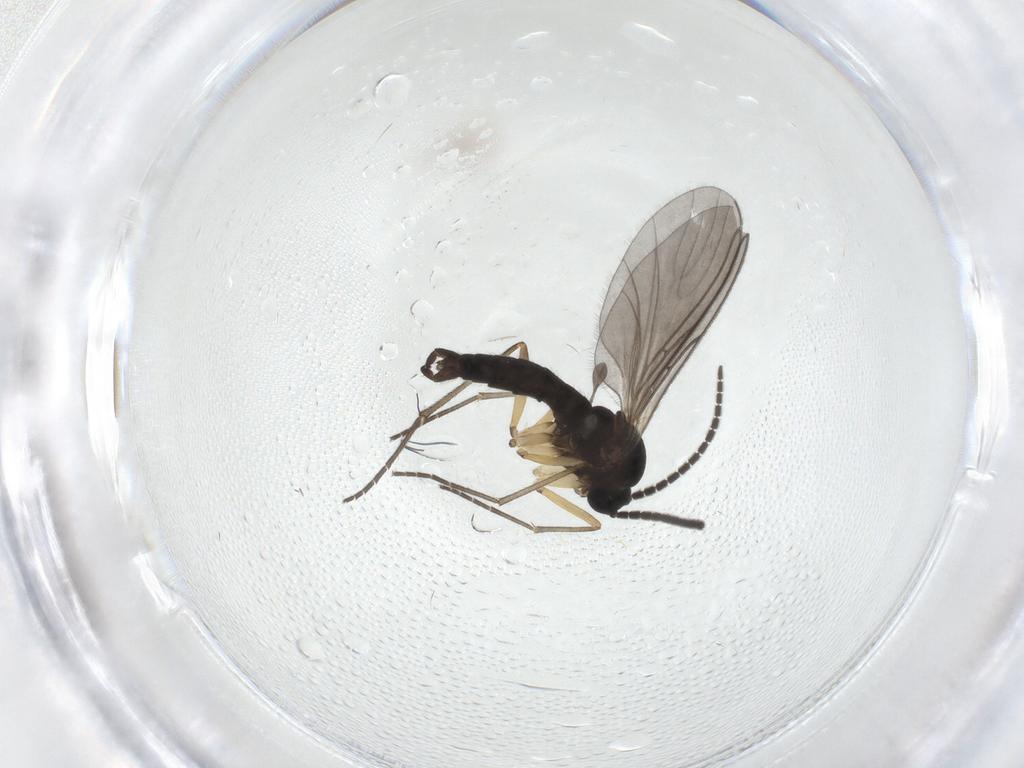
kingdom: Animalia
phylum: Arthropoda
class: Insecta
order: Diptera
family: Sciaridae
